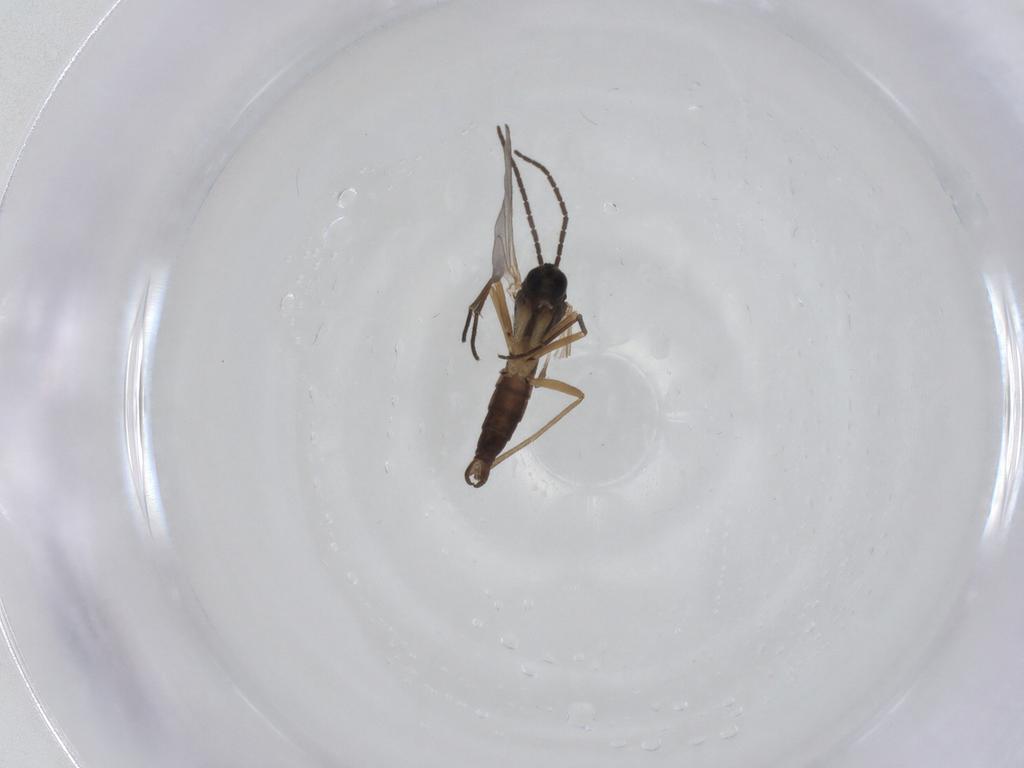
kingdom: Animalia
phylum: Arthropoda
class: Insecta
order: Diptera
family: Sciaridae
